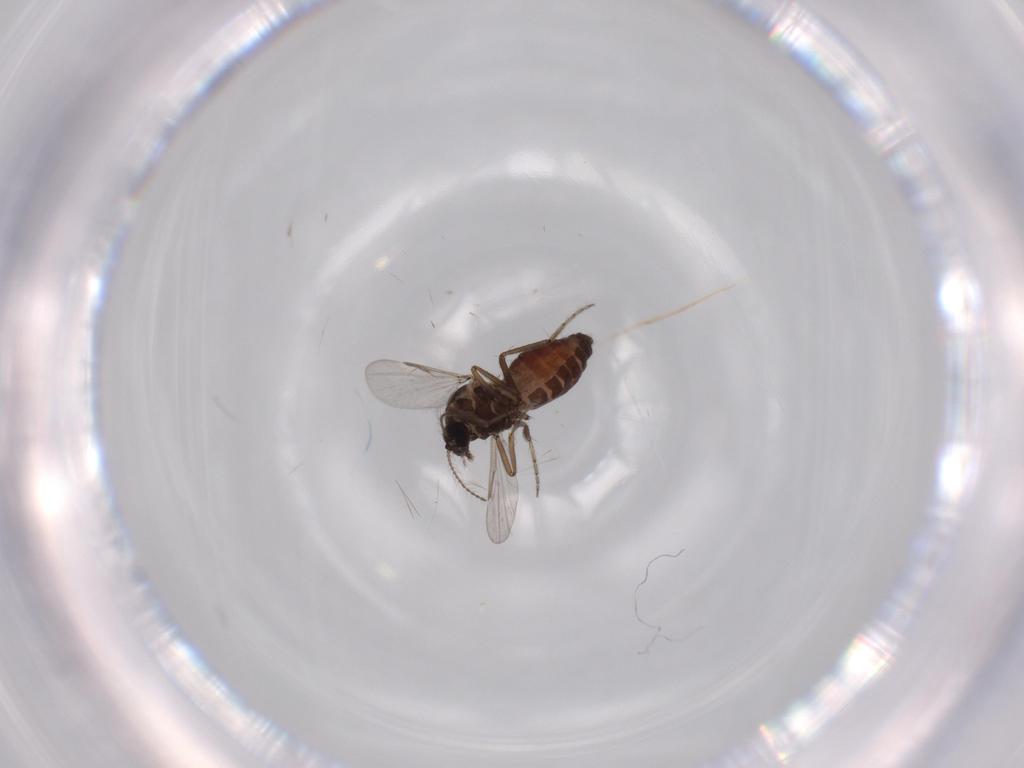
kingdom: Animalia
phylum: Arthropoda
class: Insecta
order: Diptera
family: Ceratopogonidae
